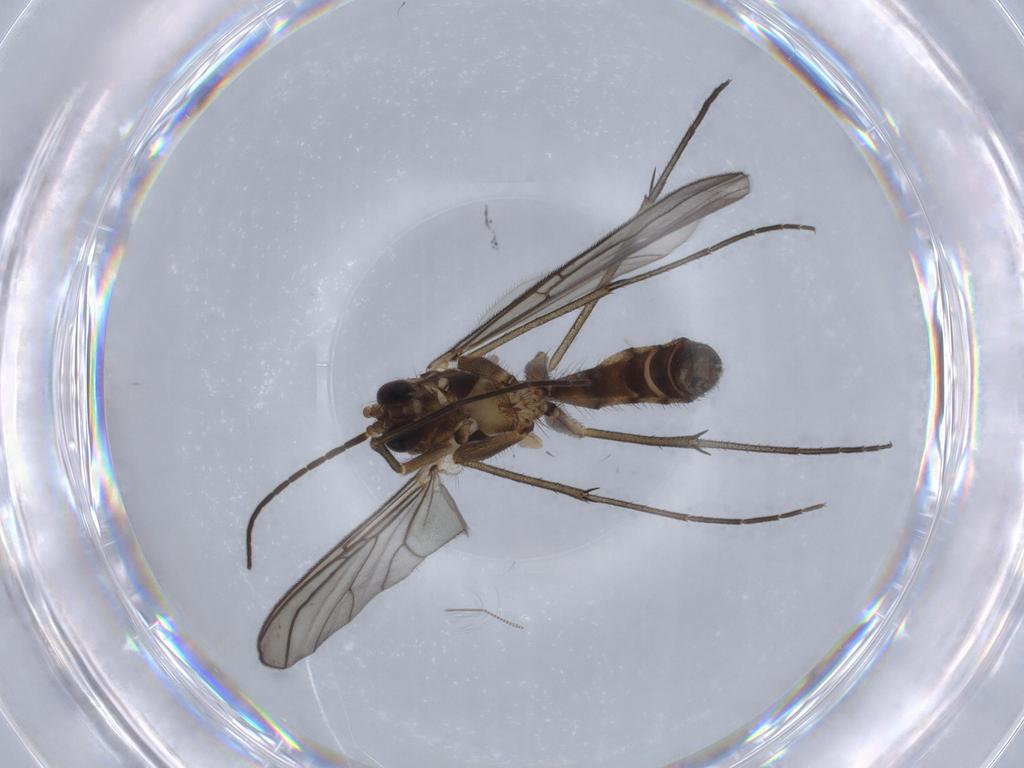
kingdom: Animalia
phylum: Arthropoda
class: Insecta
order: Diptera
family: Mycetophilidae
